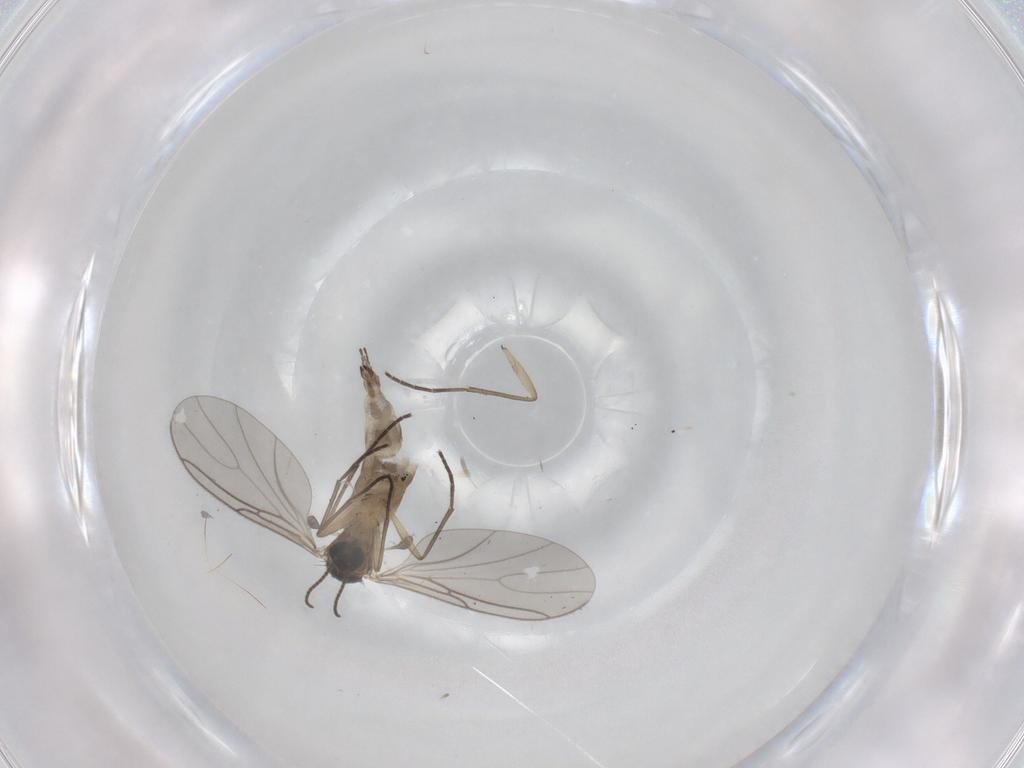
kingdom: Animalia
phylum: Arthropoda
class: Insecta
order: Diptera
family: Sciaridae
